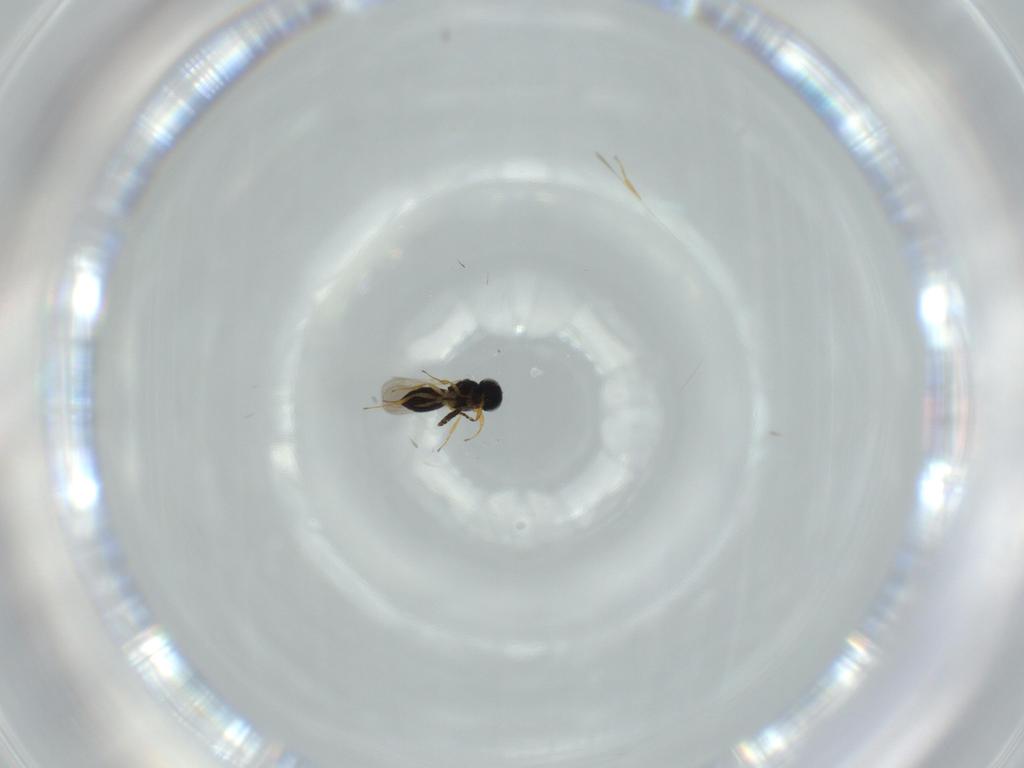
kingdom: Animalia
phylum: Arthropoda
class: Insecta
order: Hymenoptera
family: Scelionidae
